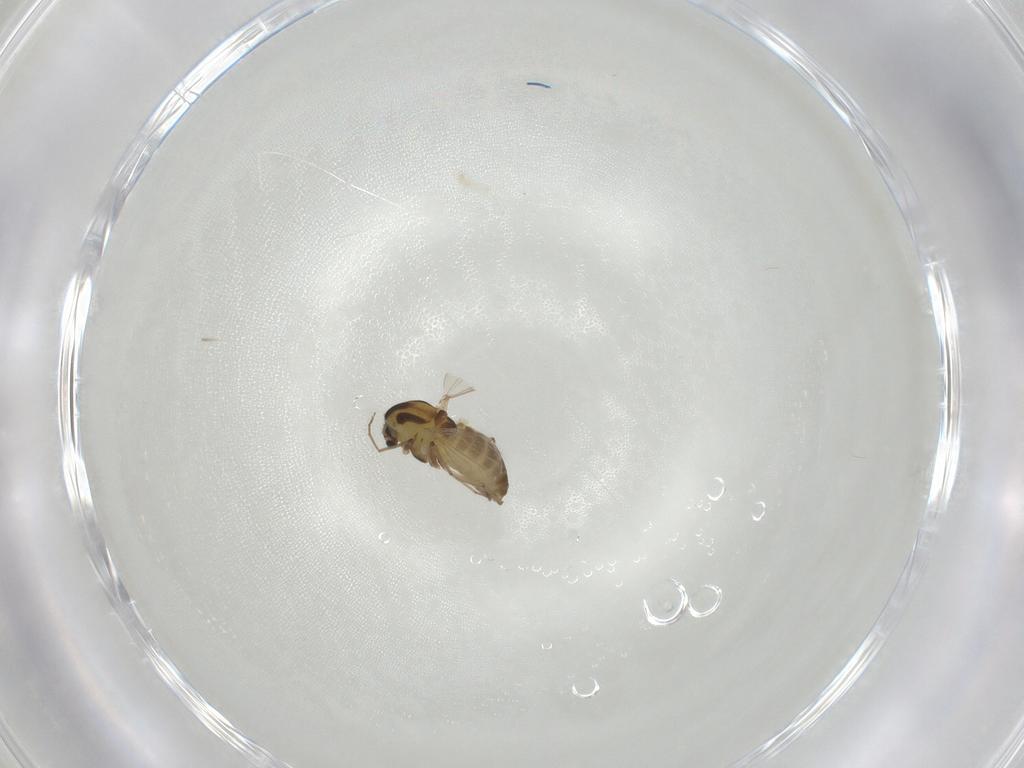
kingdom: Animalia
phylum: Arthropoda
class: Insecta
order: Diptera
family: Chironomidae
